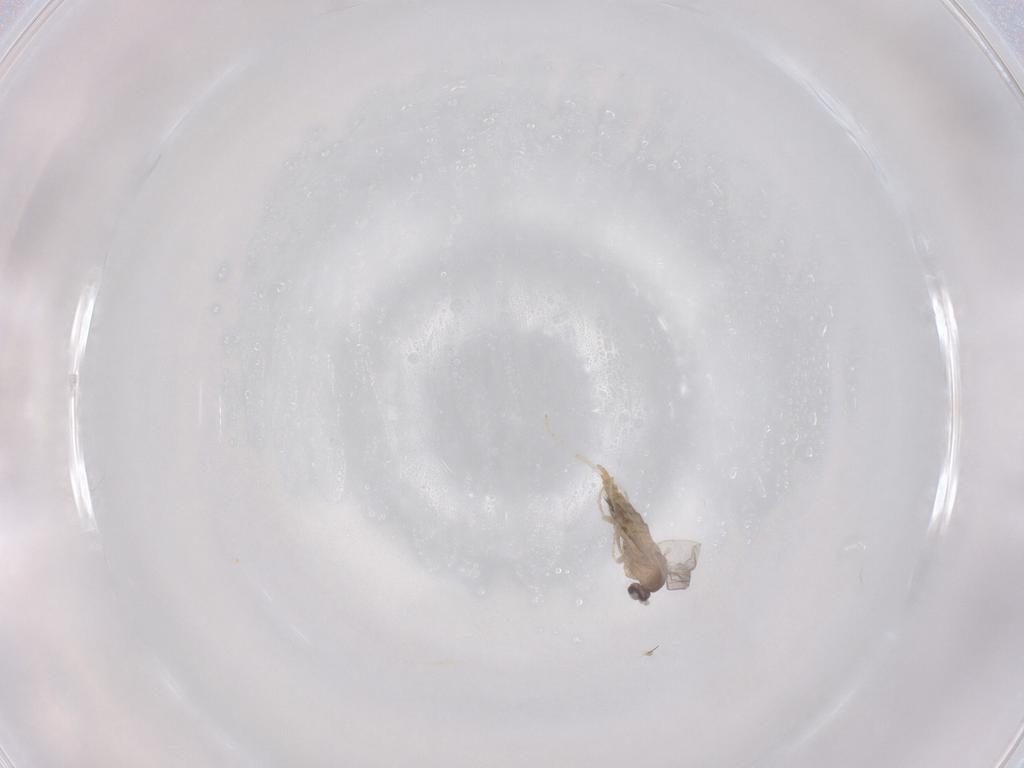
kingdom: Animalia
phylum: Arthropoda
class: Insecta
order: Diptera
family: Cecidomyiidae
